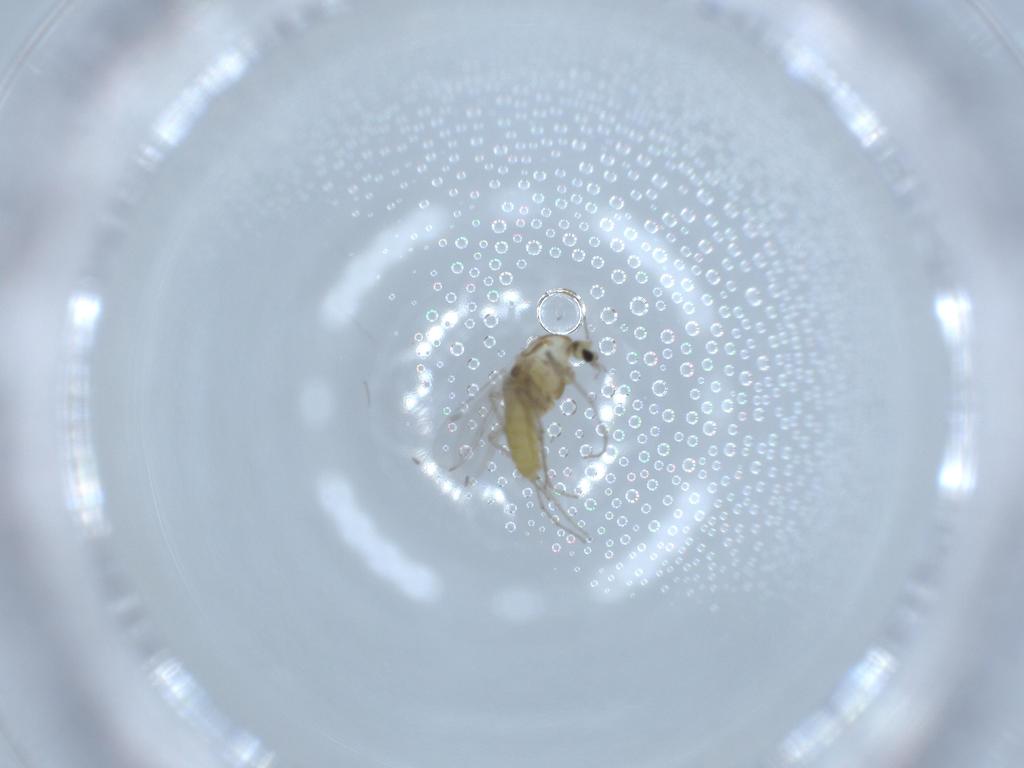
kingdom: Animalia
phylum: Arthropoda
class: Insecta
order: Diptera
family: Chironomidae
